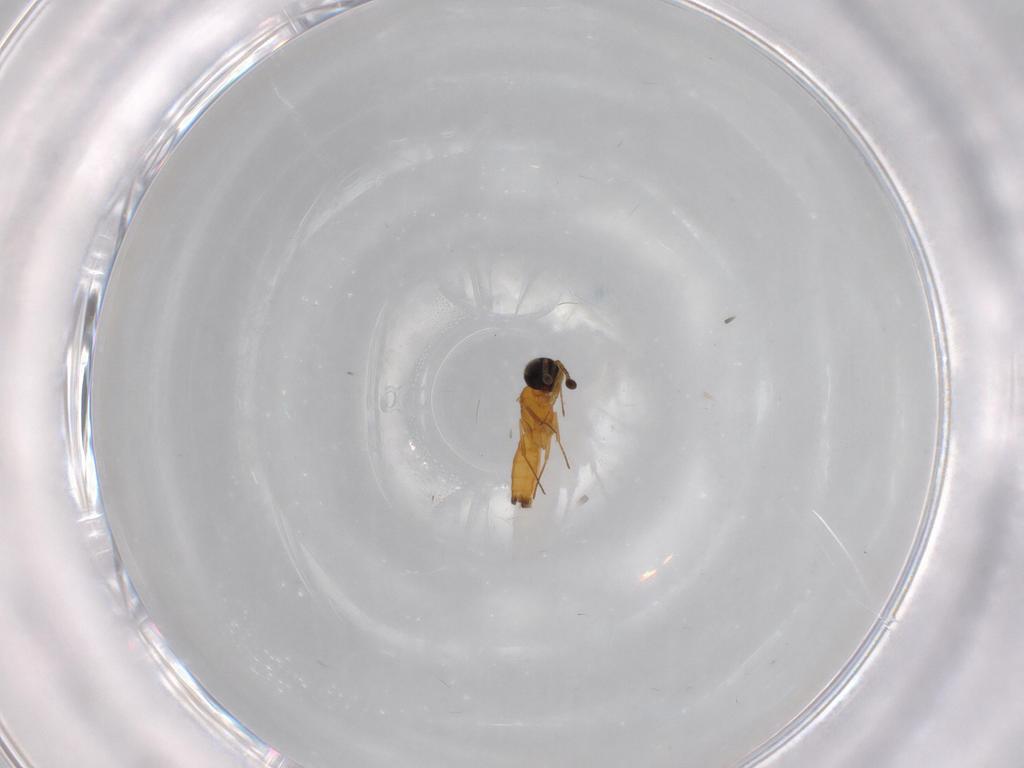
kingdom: Animalia
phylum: Arthropoda
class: Insecta
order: Hymenoptera
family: Scelionidae
